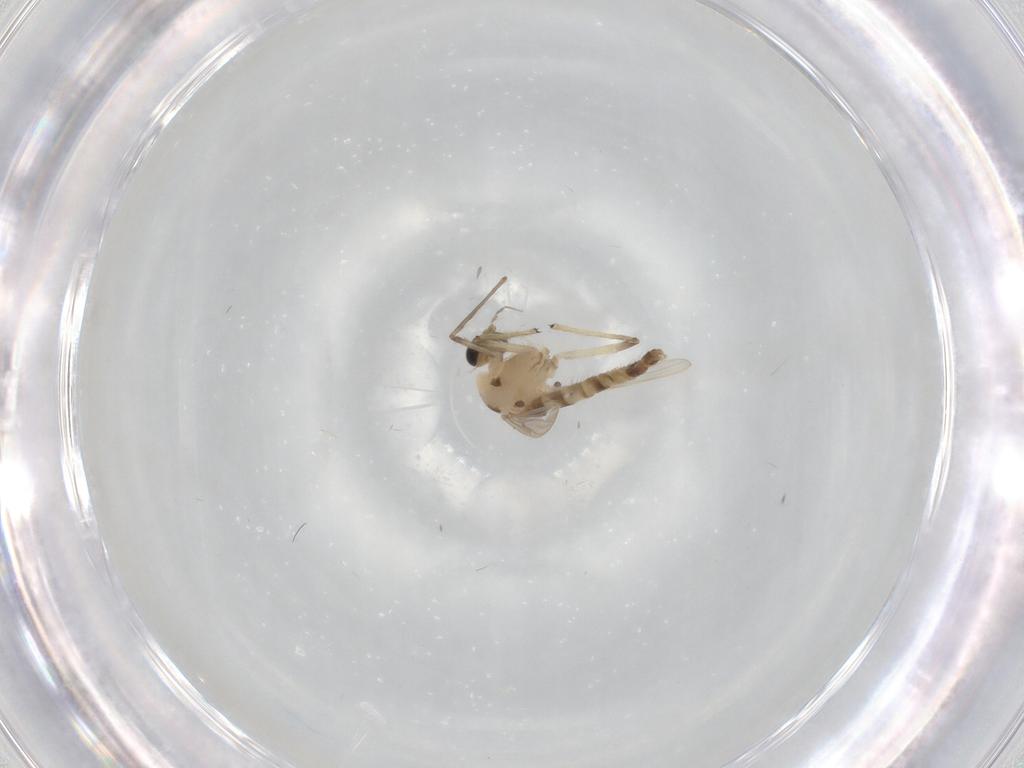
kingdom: Animalia
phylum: Arthropoda
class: Insecta
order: Diptera
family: Chironomidae
